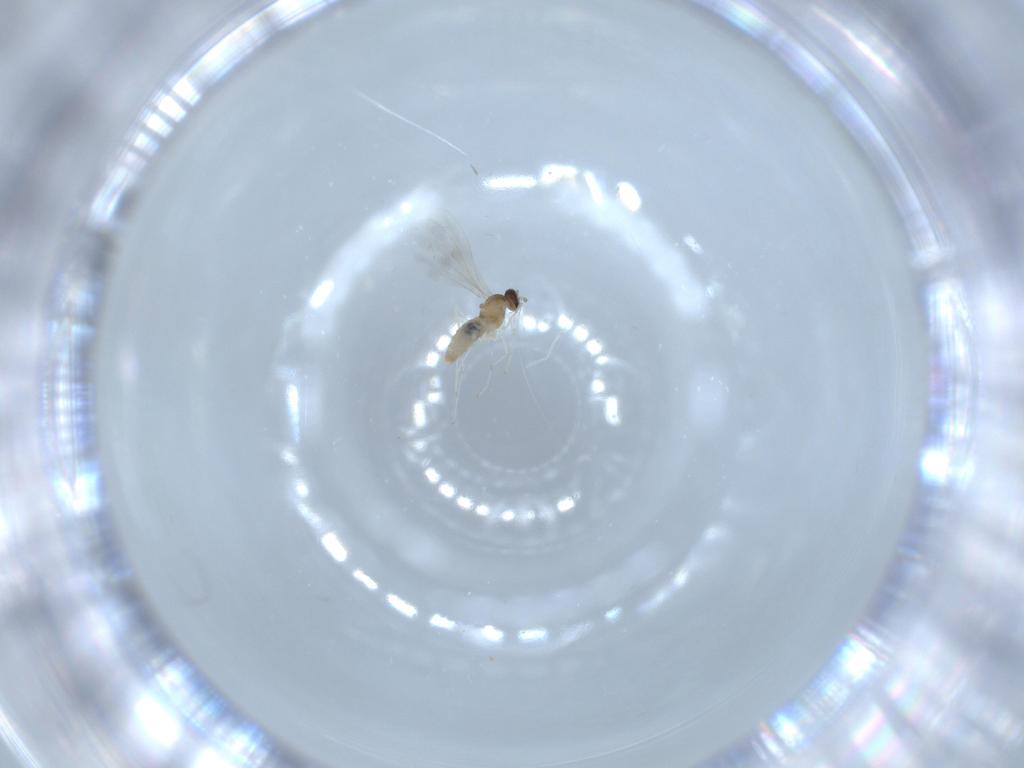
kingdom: Animalia
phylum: Arthropoda
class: Insecta
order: Diptera
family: Cecidomyiidae
